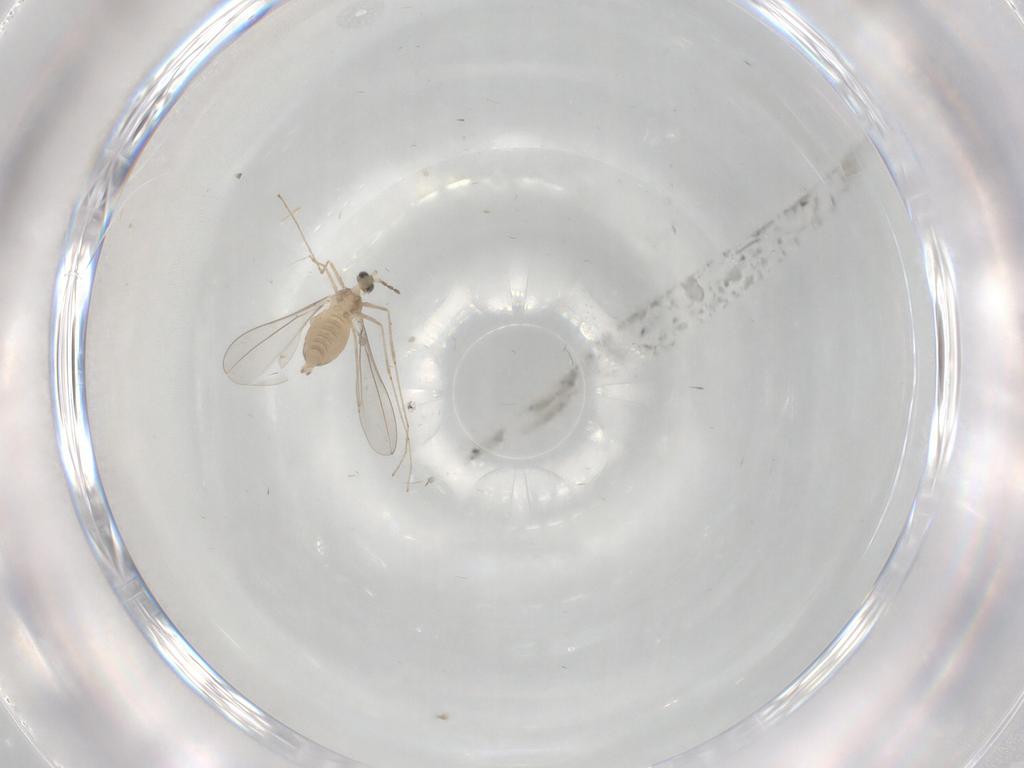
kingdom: Animalia
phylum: Arthropoda
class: Insecta
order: Diptera
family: Cecidomyiidae
